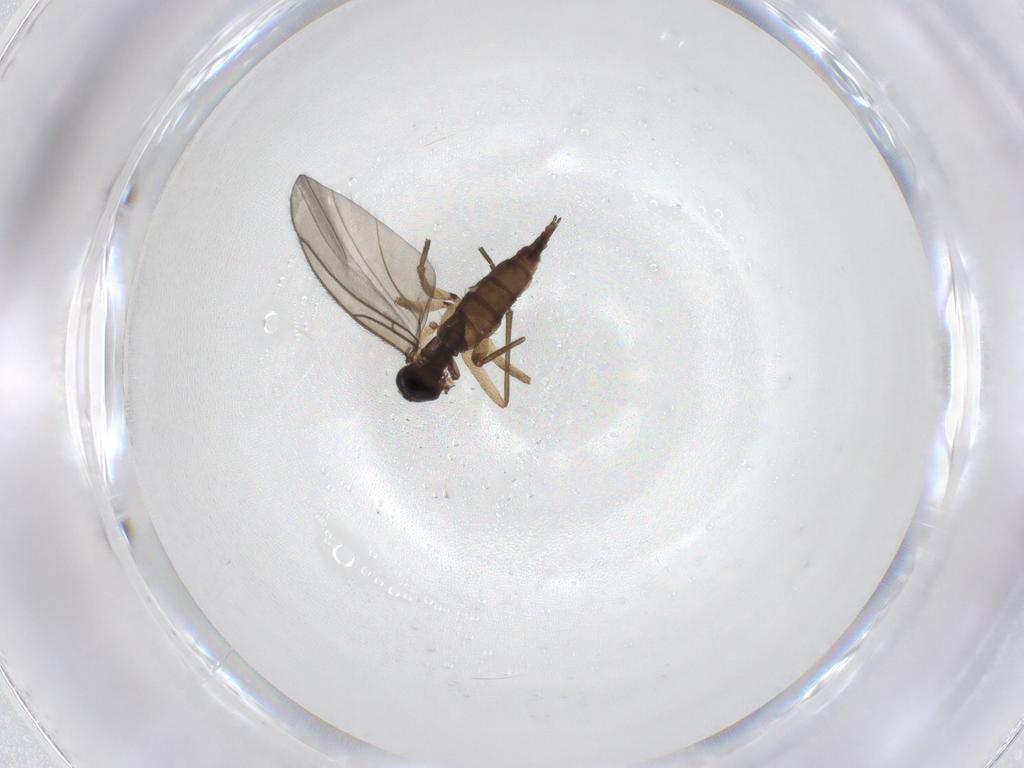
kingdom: Animalia
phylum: Arthropoda
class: Insecta
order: Diptera
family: Sciaridae
